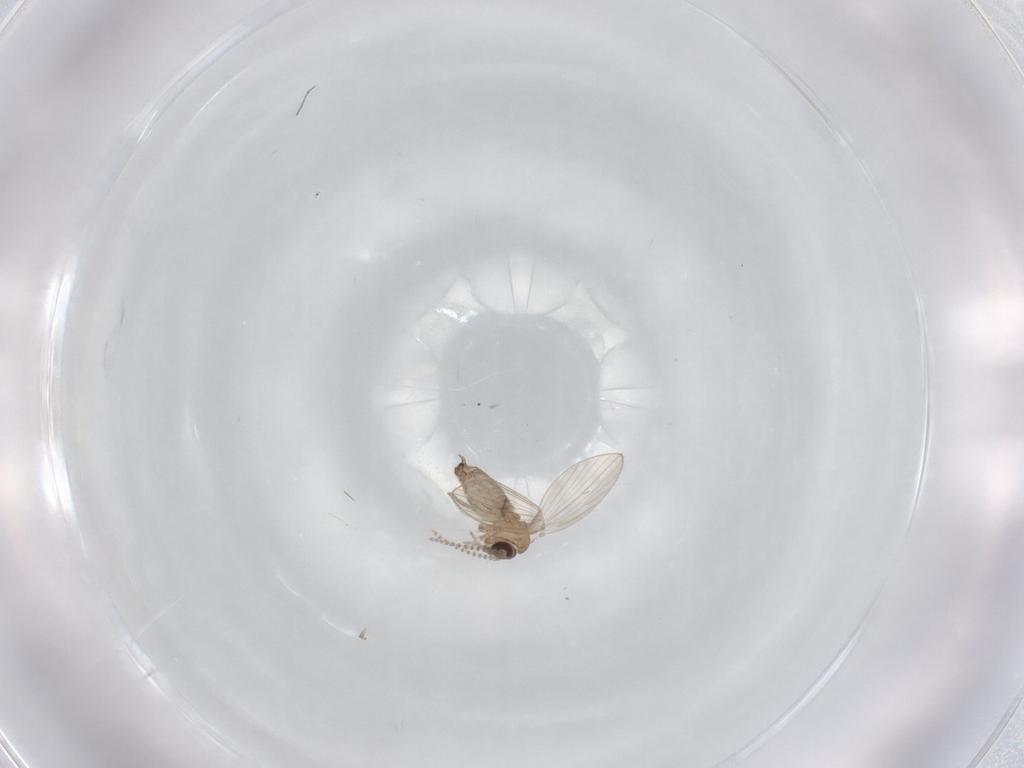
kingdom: Animalia
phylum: Arthropoda
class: Insecta
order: Diptera
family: Psychodidae
